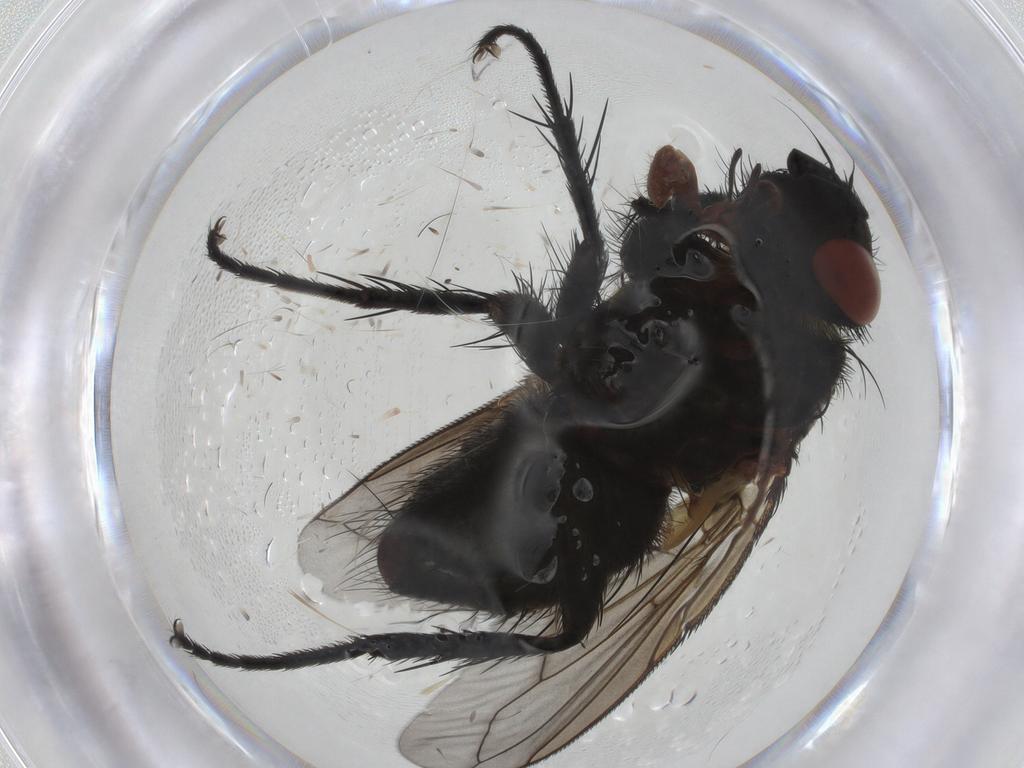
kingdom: Animalia
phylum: Arthropoda
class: Insecta
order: Diptera
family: Tachinidae
